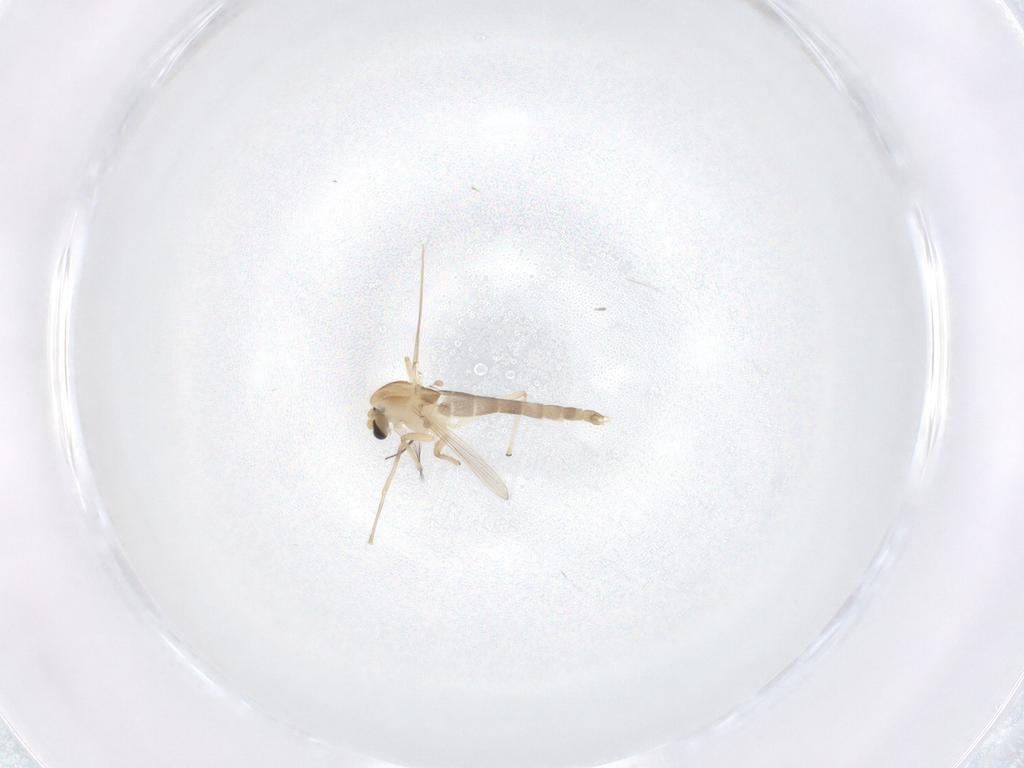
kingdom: Animalia
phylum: Arthropoda
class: Insecta
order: Diptera
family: Chironomidae
